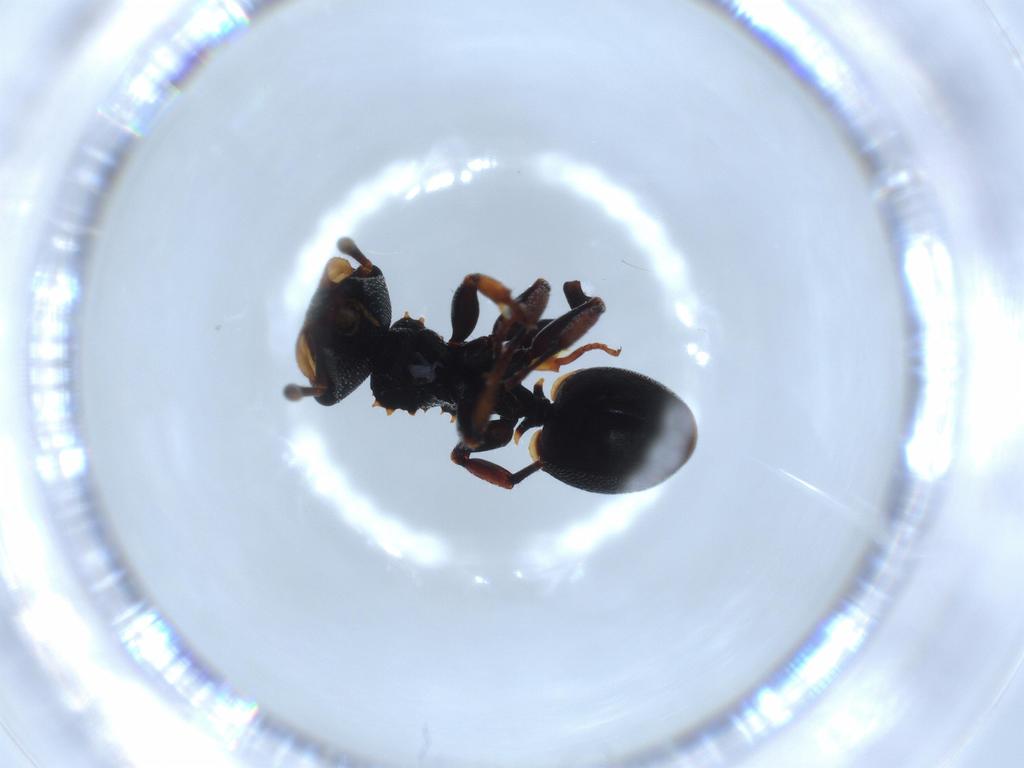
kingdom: Animalia
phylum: Arthropoda
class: Insecta
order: Hymenoptera
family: Formicidae
